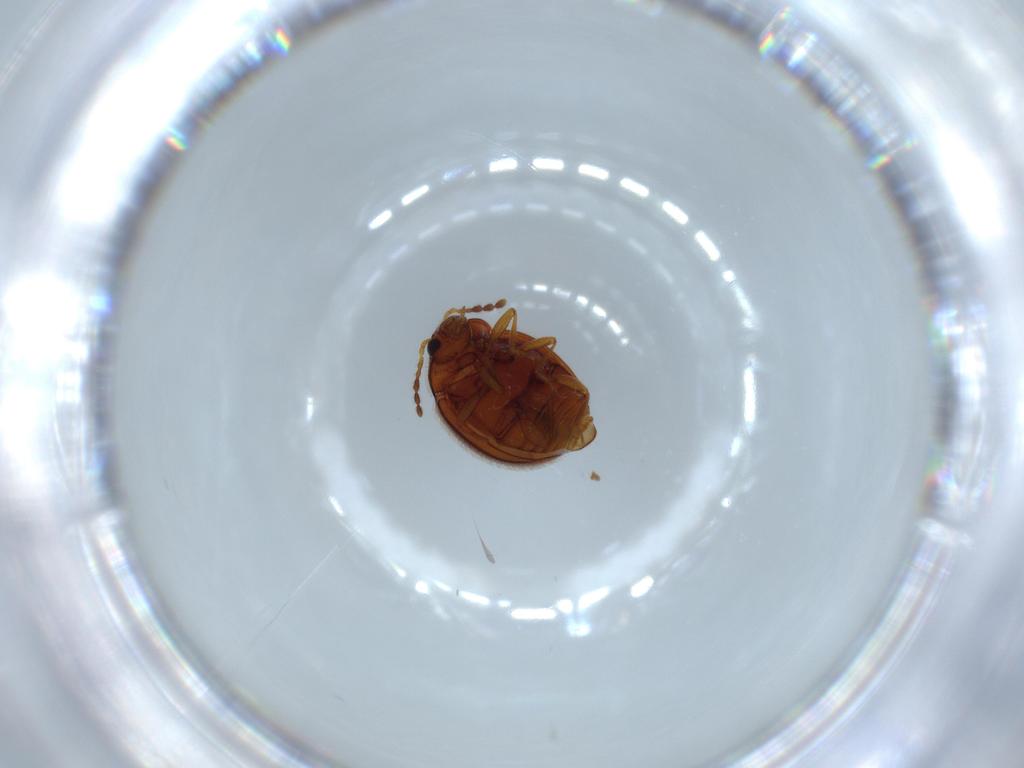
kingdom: Animalia
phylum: Arthropoda
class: Insecta
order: Coleoptera
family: Anamorphidae
